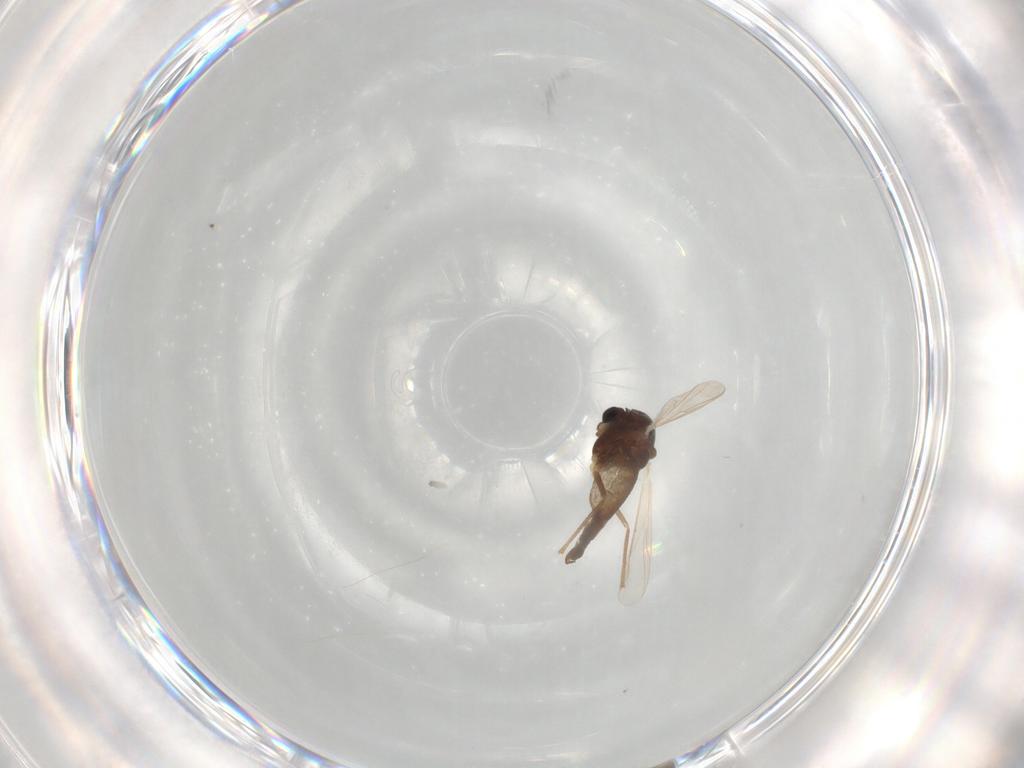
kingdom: Animalia
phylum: Arthropoda
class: Insecta
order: Diptera
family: Chironomidae
